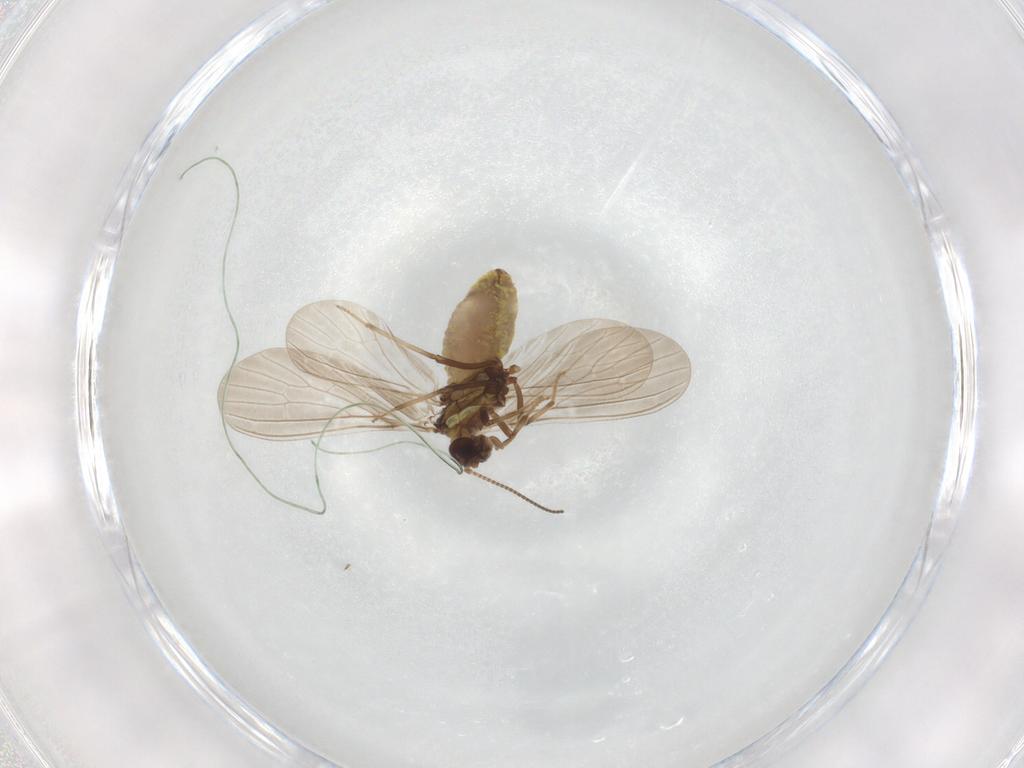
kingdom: Animalia
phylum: Arthropoda
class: Insecta
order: Neuroptera
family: Coniopterygidae
